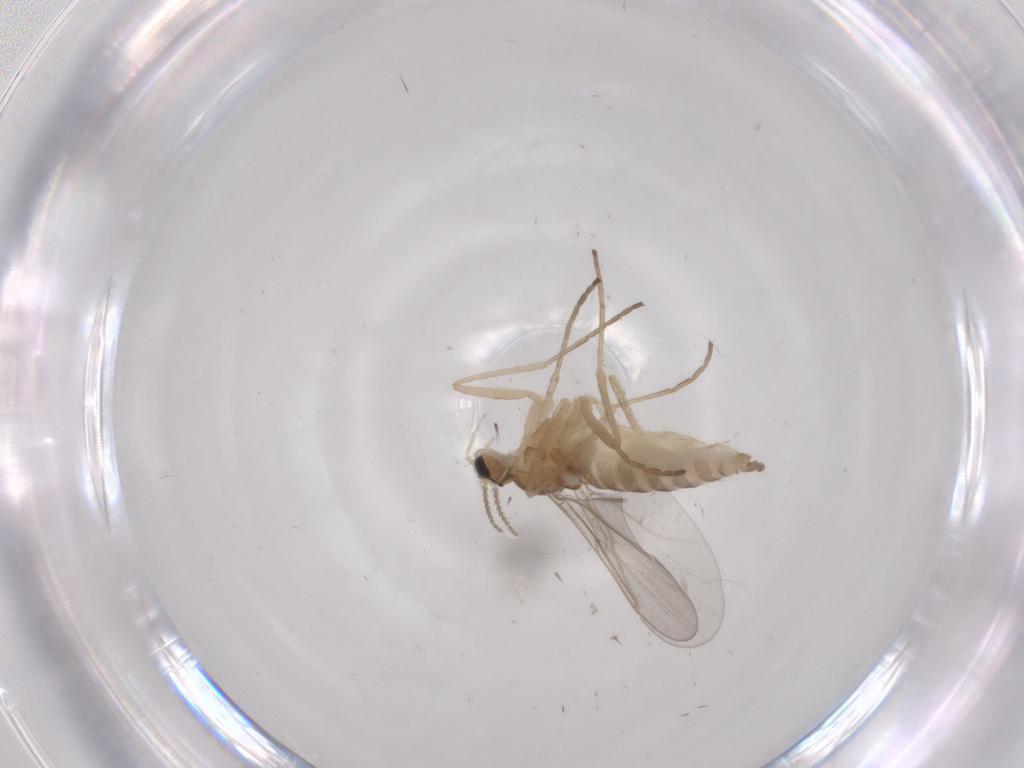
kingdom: Animalia
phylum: Arthropoda
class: Insecta
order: Diptera
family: Cecidomyiidae
